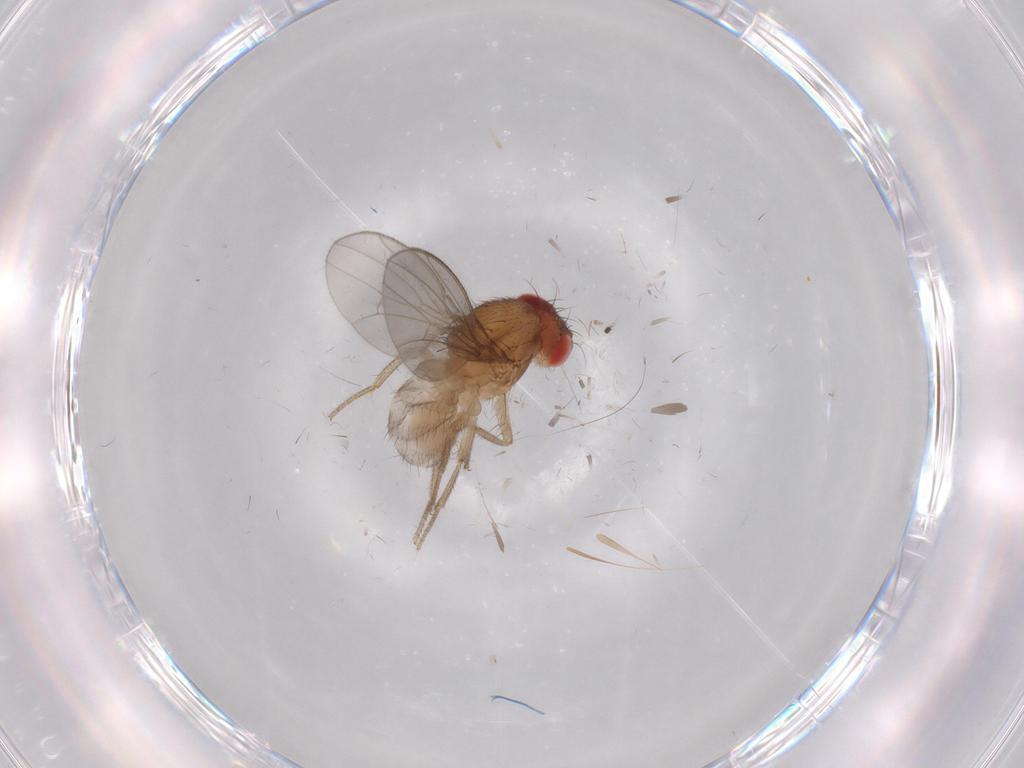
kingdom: Animalia
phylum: Arthropoda
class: Insecta
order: Diptera
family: Drosophilidae
